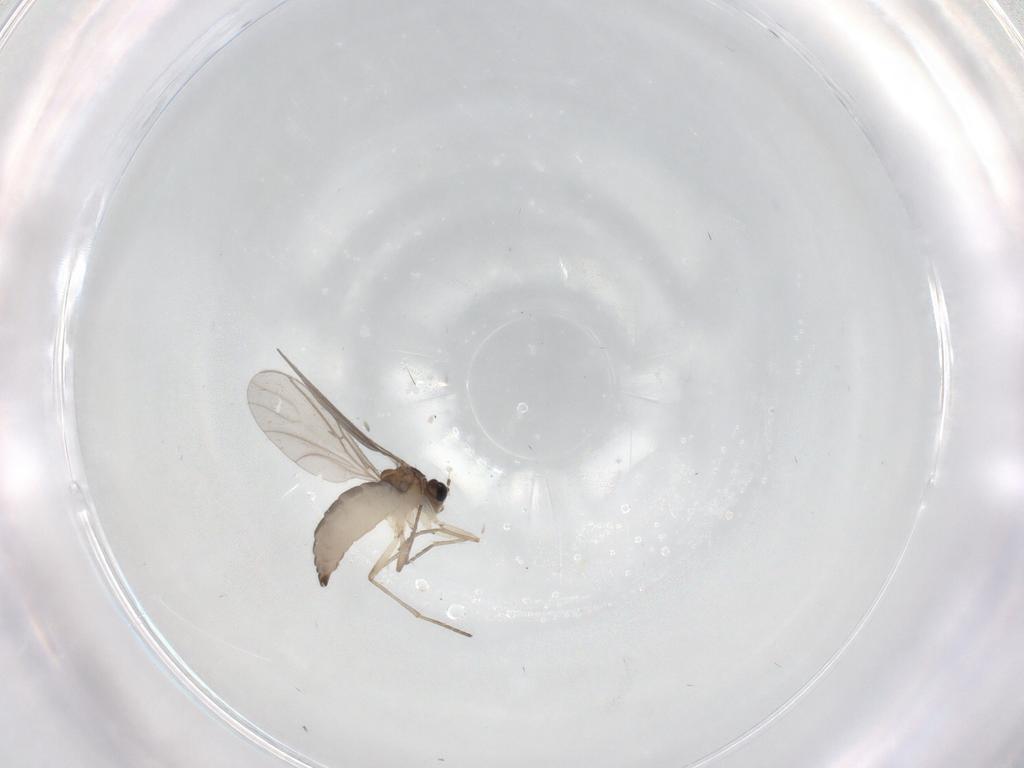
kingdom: Animalia
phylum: Arthropoda
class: Insecta
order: Diptera
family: Sciaridae
